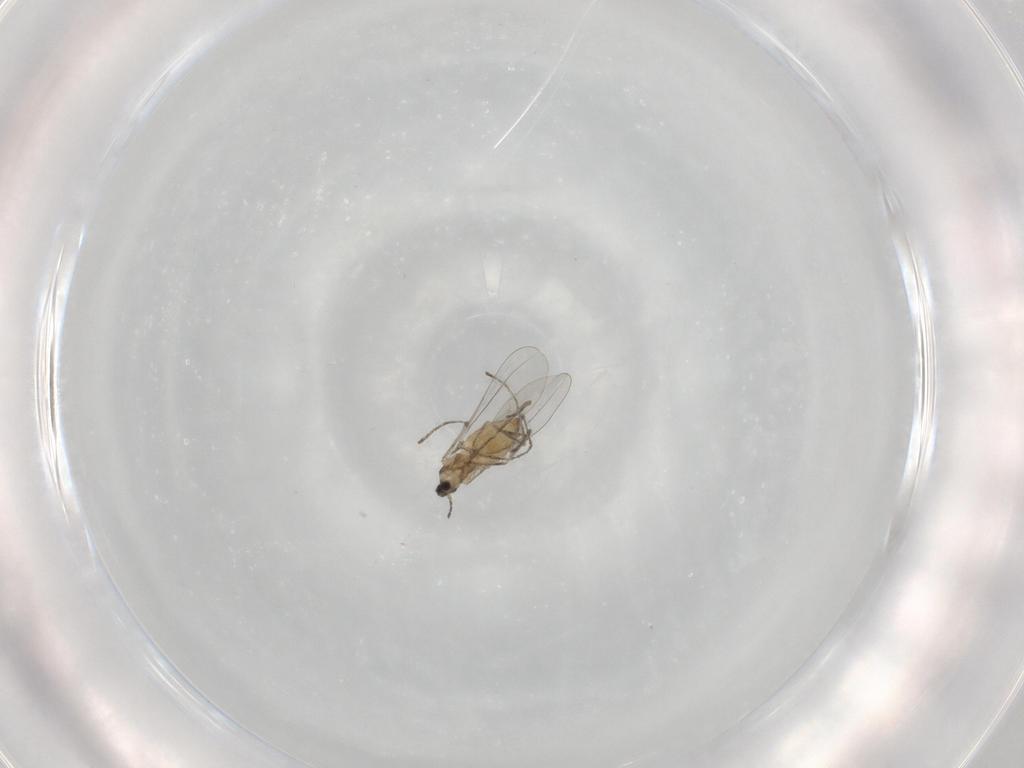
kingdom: Animalia
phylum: Arthropoda
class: Insecta
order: Diptera
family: Cecidomyiidae
